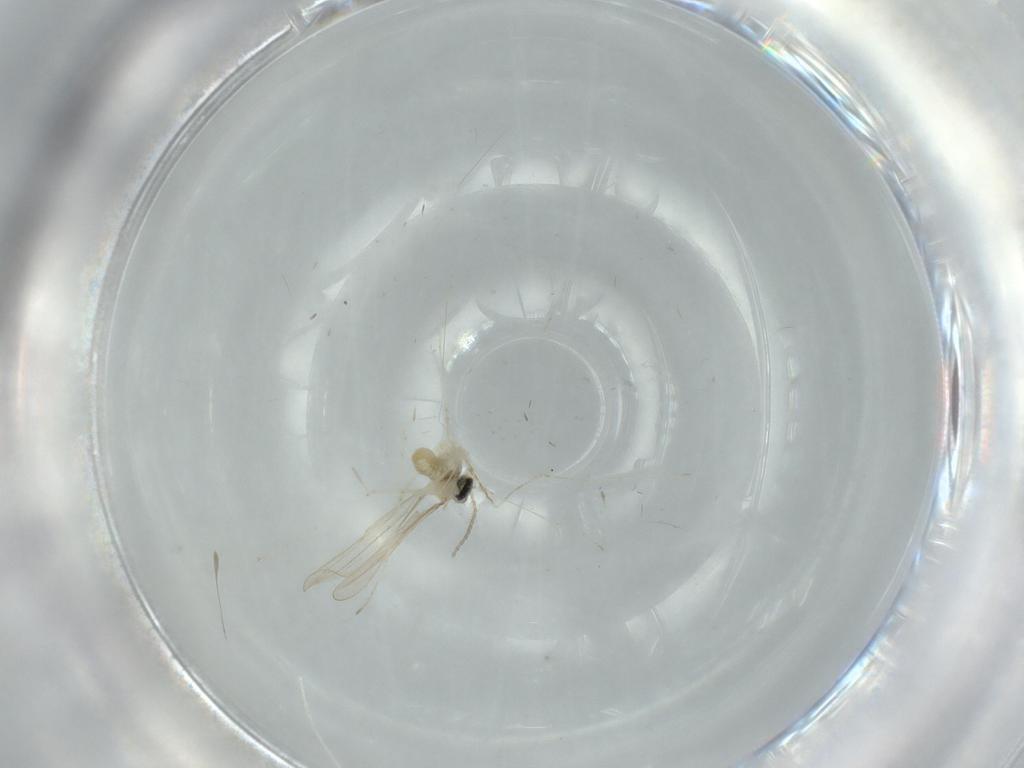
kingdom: Animalia
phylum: Arthropoda
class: Insecta
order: Diptera
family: Cecidomyiidae
